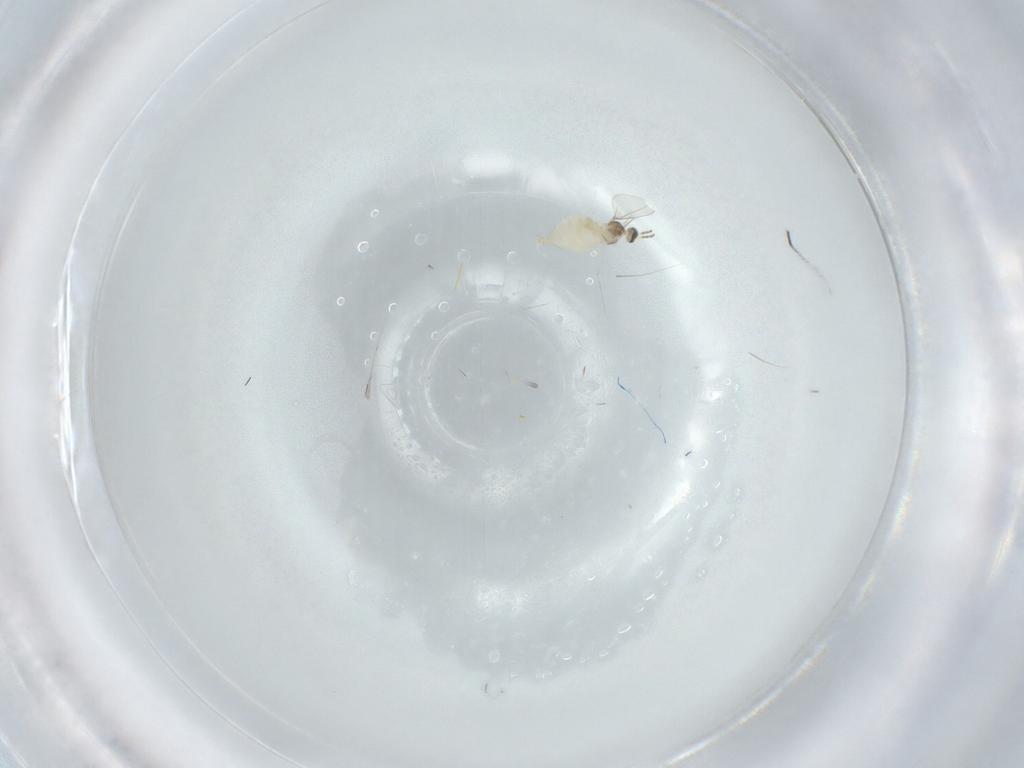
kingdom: Animalia
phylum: Arthropoda
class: Insecta
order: Diptera
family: Cecidomyiidae
